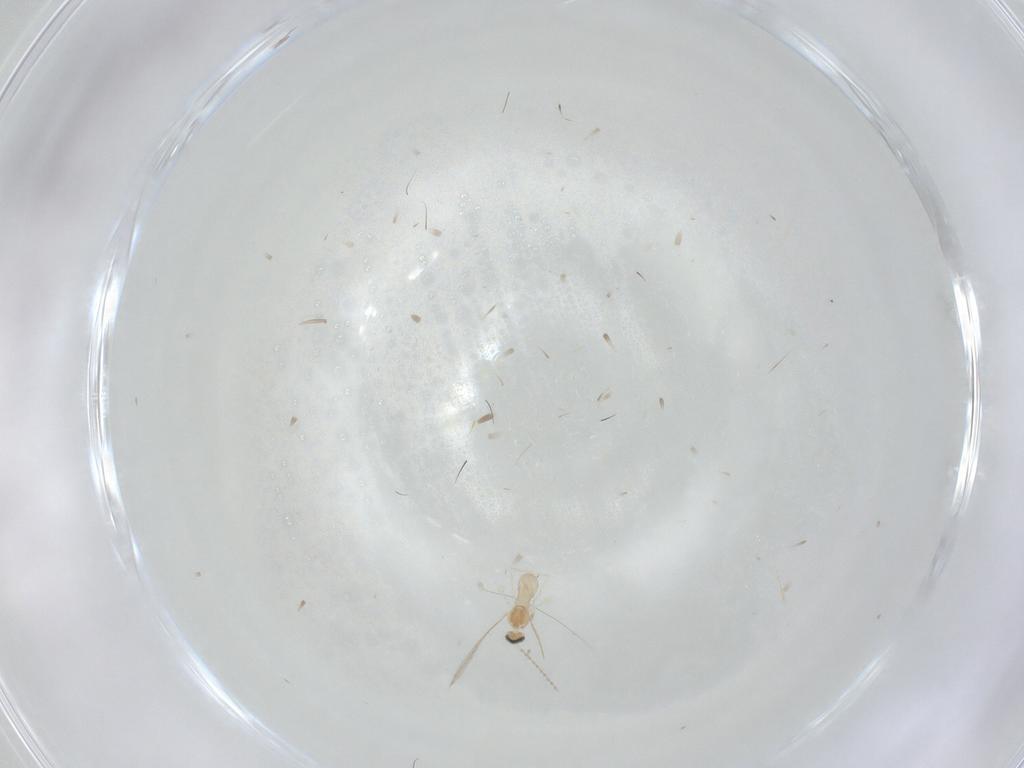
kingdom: Animalia
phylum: Arthropoda
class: Insecta
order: Diptera
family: Cecidomyiidae
